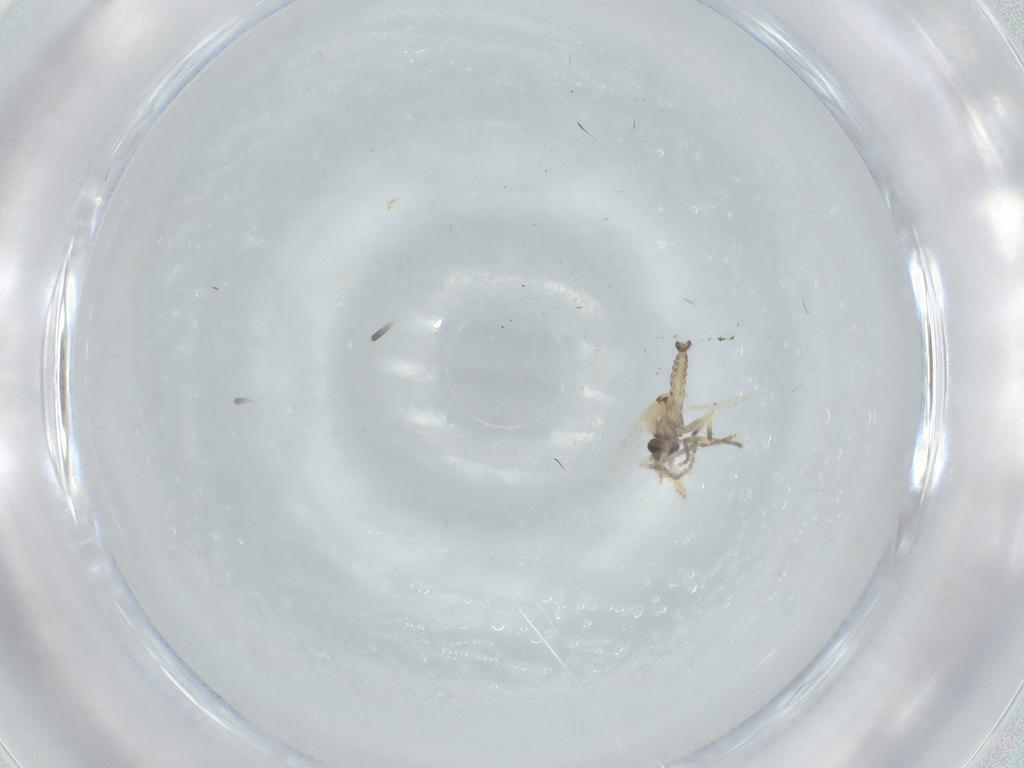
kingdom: Animalia
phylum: Arthropoda
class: Insecta
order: Diptera
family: Ceratopogonidae
